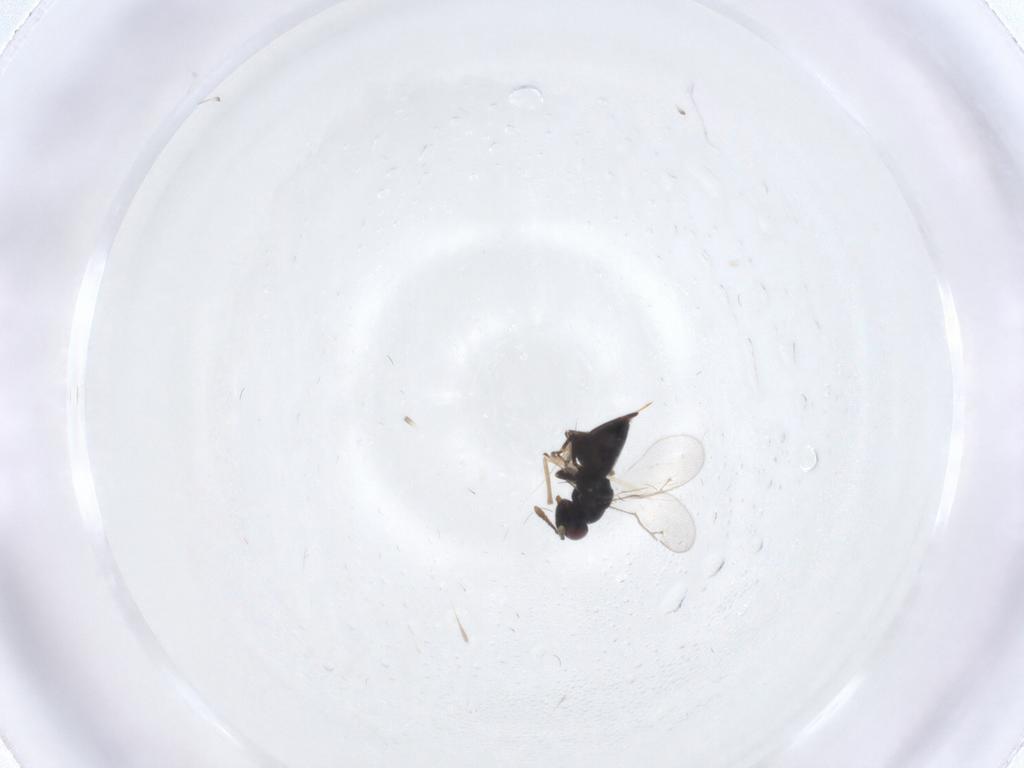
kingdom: Animalia
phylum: Arthropoda
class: Insecta
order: Hymenoptera
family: Pteromalidae
